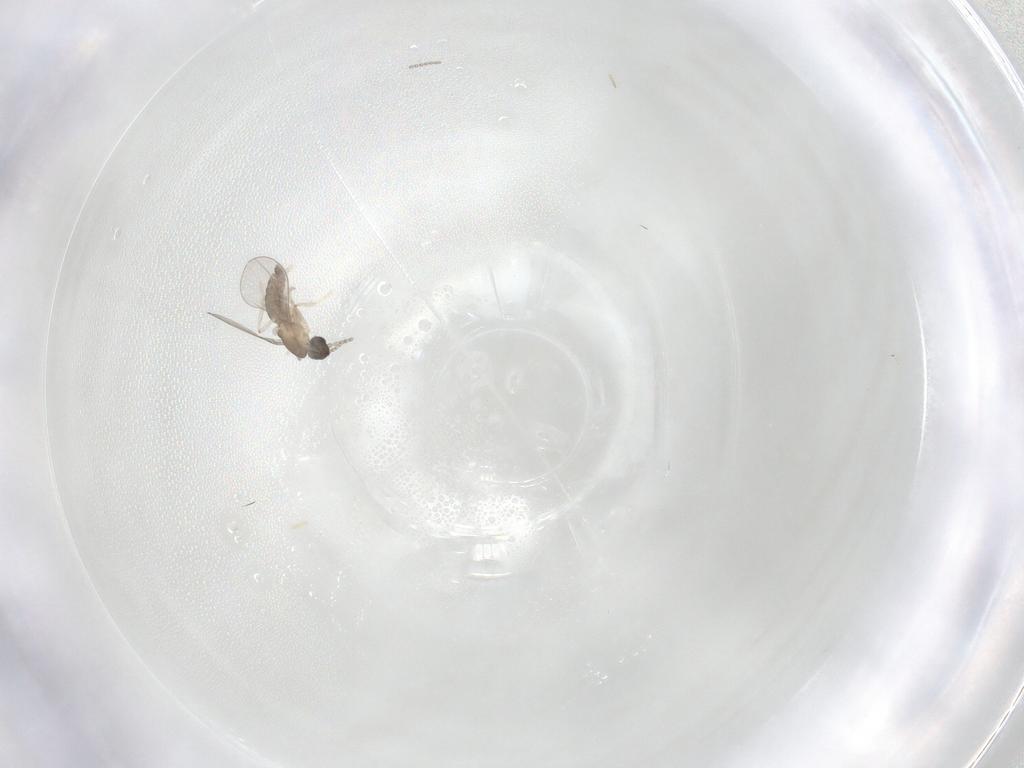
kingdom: Animalia
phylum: Arthropoda
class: Insecta
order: Diptera
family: Cecidomyiidae
